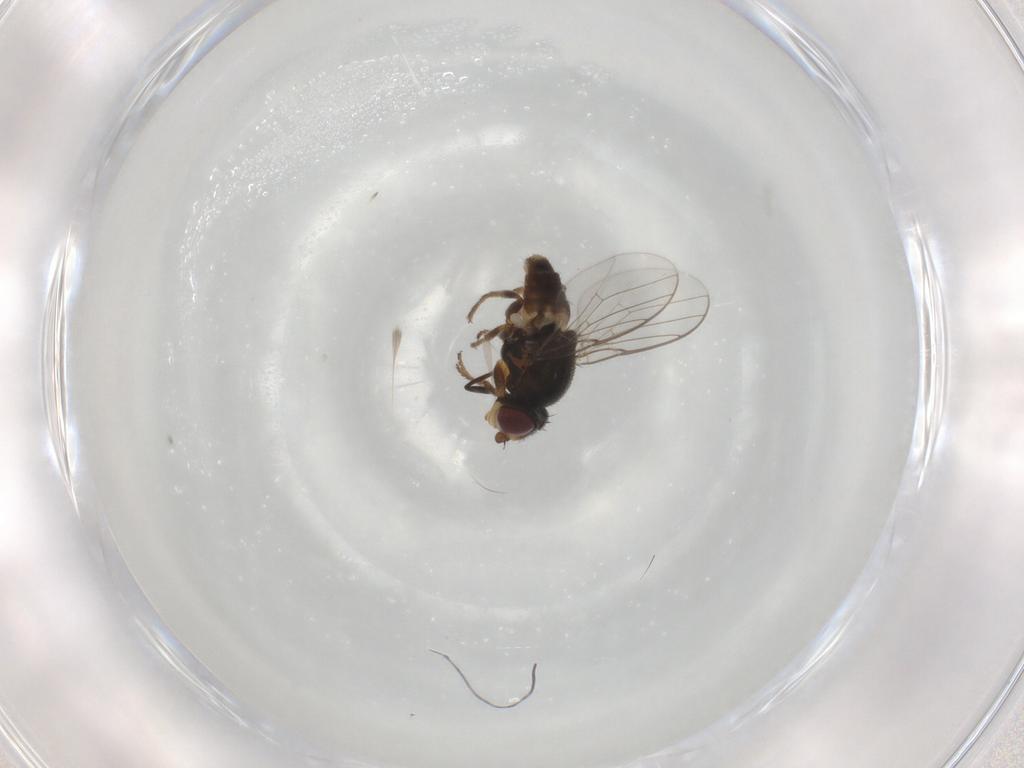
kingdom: Animalia
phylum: Arthropoda
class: Insecta
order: Diptera
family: Chloropidae
